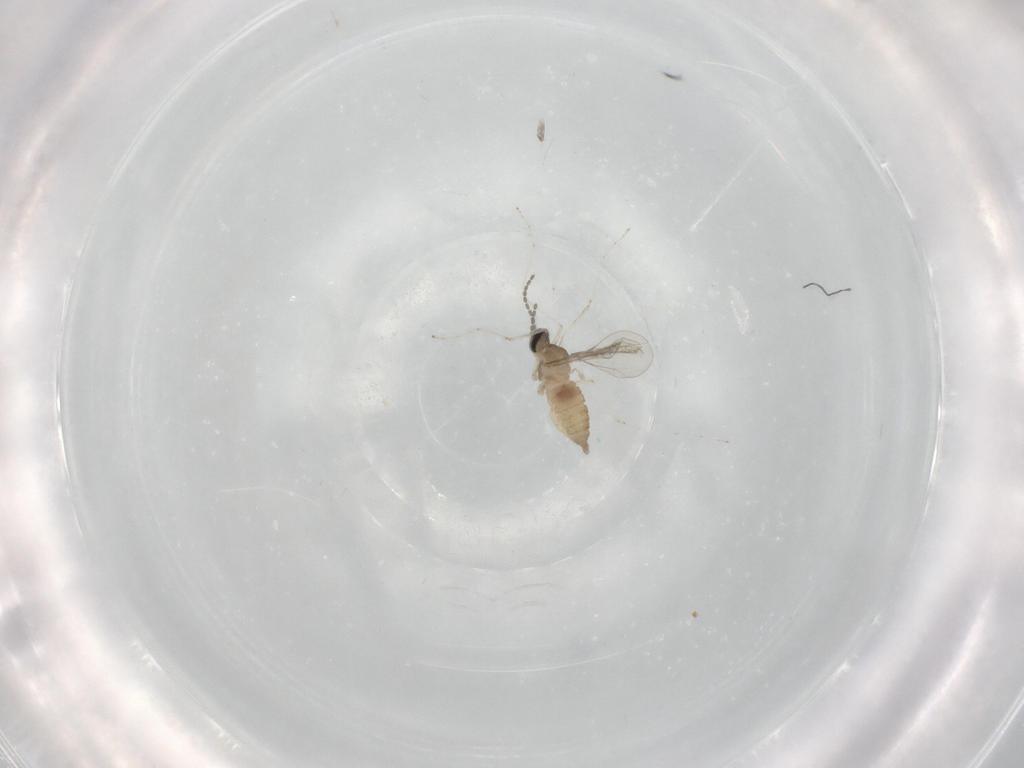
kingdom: Animalia
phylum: Arthropoda
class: Insecta
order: Diptera
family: Cecidomyiidae
